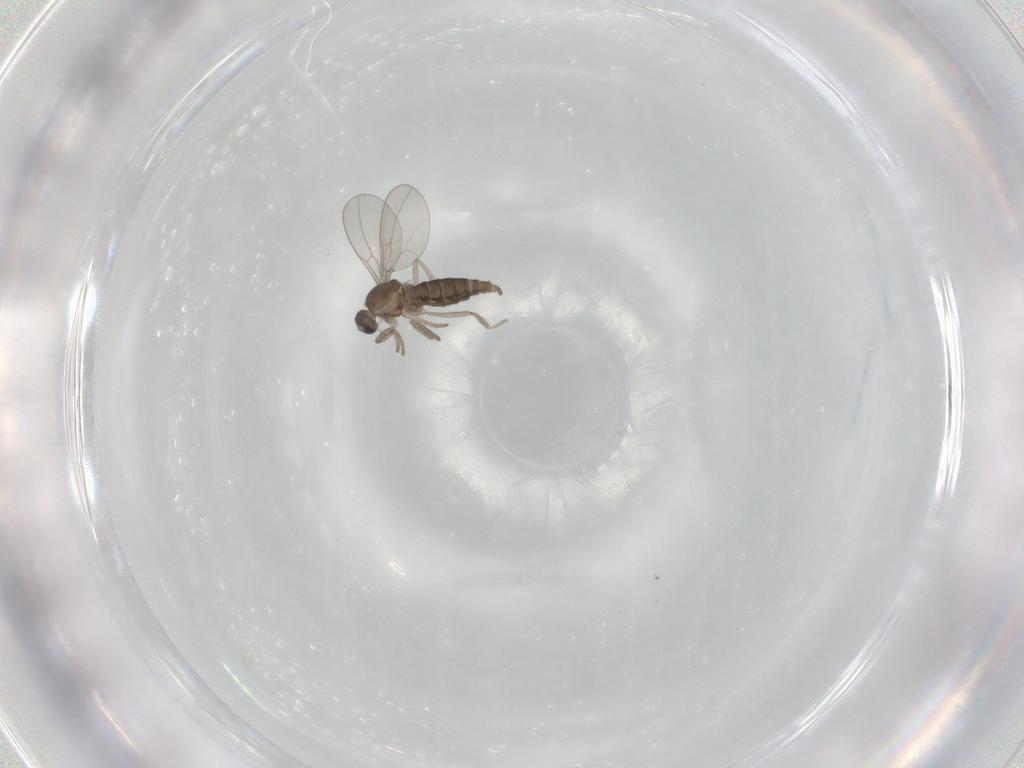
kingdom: Animalia
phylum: Arthropoda
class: Insecta
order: Diptera
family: Cecidomyiidae
